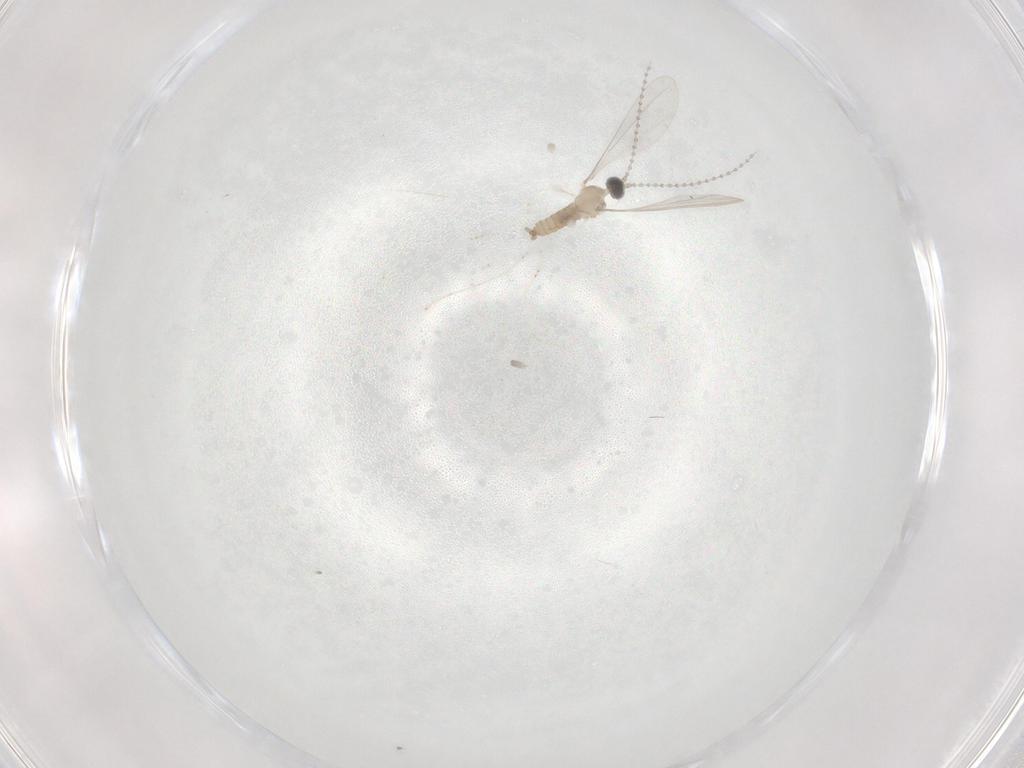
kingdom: Animalia
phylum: Arthropoda
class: Insecta
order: Diptera
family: Cecidomyiidae
